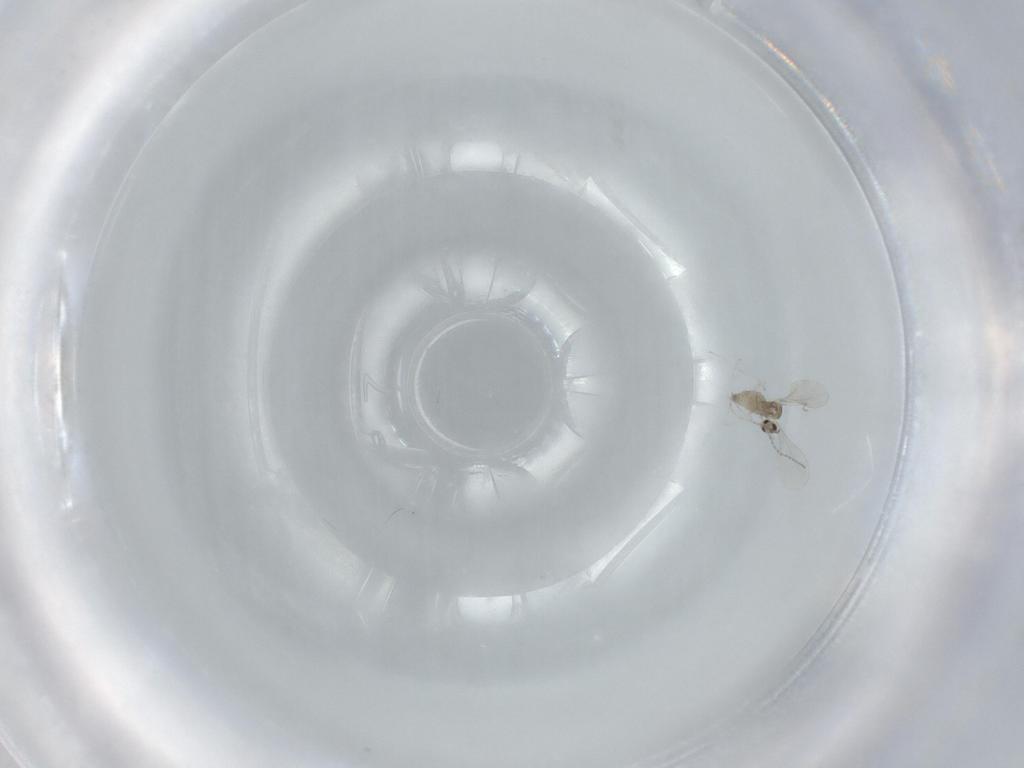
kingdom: Animalia
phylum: Arthropoda
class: Insecta
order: Diptera
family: Cecidomyiidae
